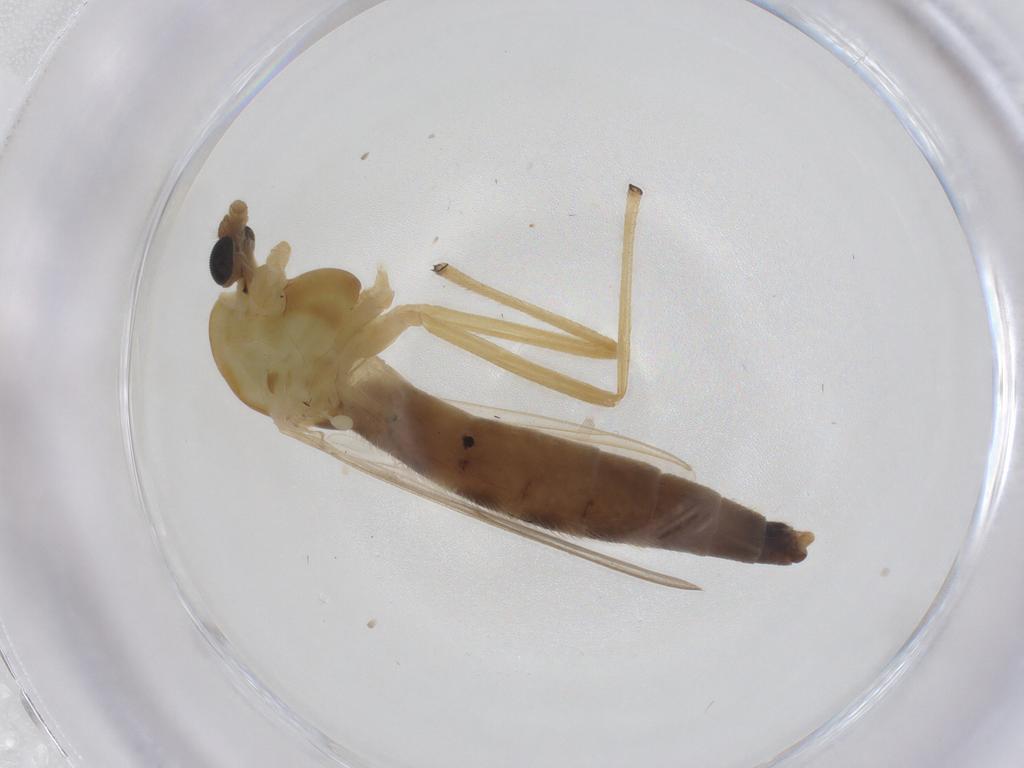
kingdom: Animalia
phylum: Arthropoda
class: Insecta
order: Diptera
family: Chironomidae
